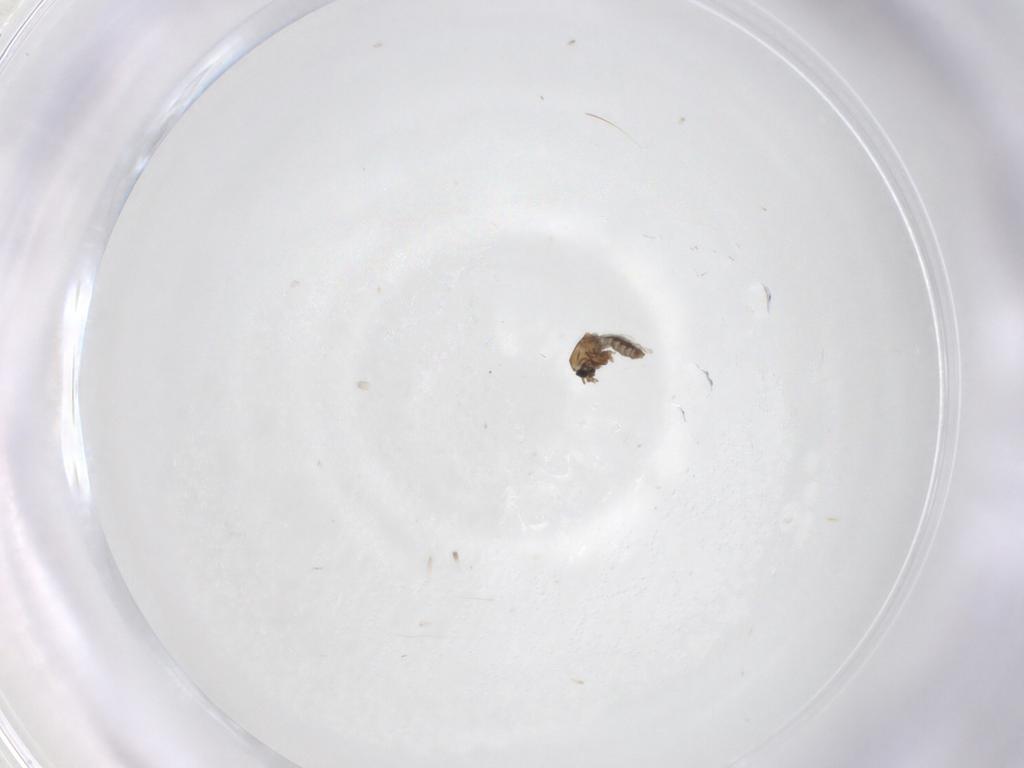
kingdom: Animalia
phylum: Arthropoda
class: Insecta
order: Diptera
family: Ceratopogonidae
